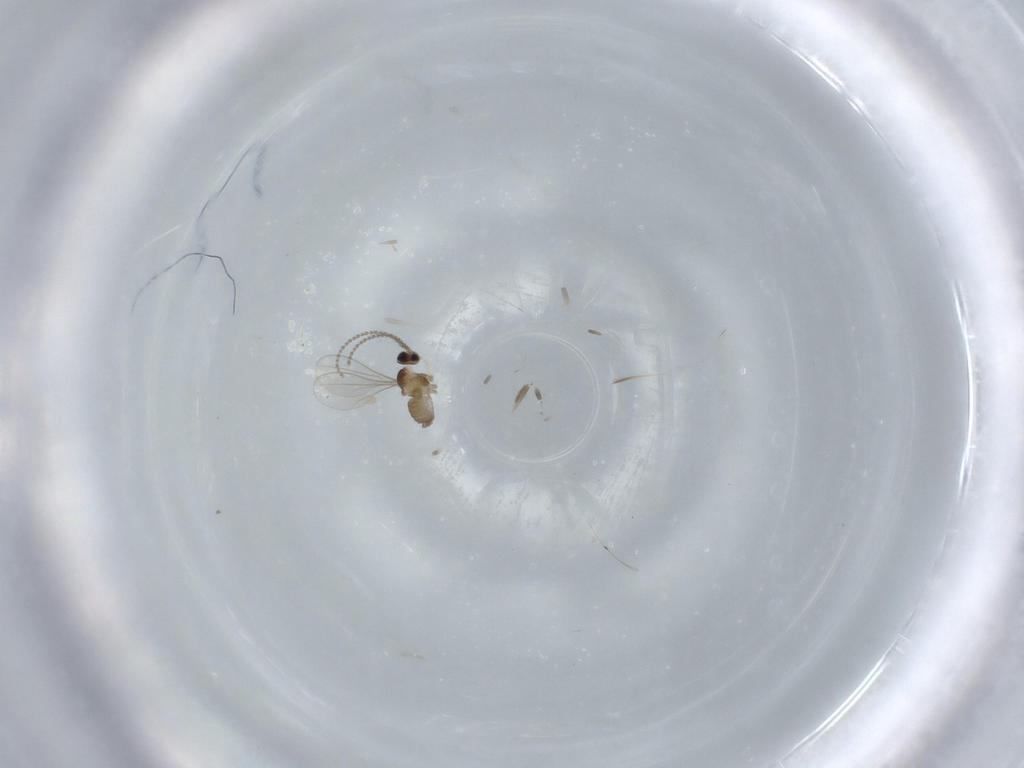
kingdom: Animalia
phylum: Arthropoda
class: Insecta
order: Diptera
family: Cecidomyiidae
